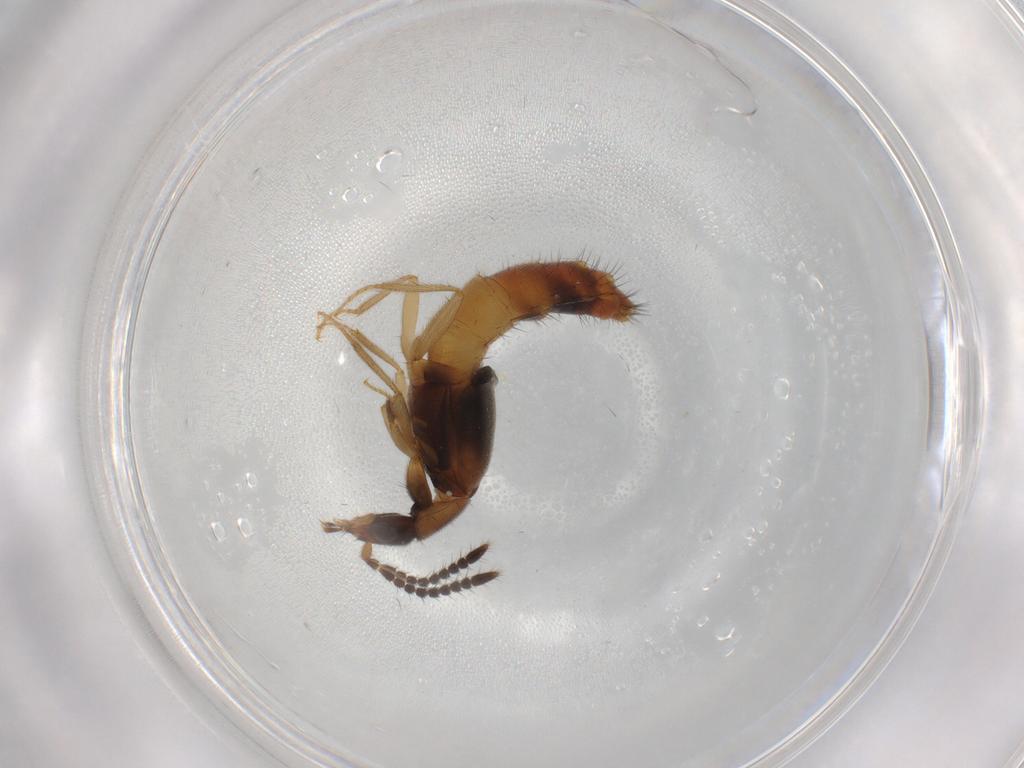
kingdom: Animalia
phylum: Arthropoda
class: Insecta
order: Coleoptera
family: Staphylinidae
